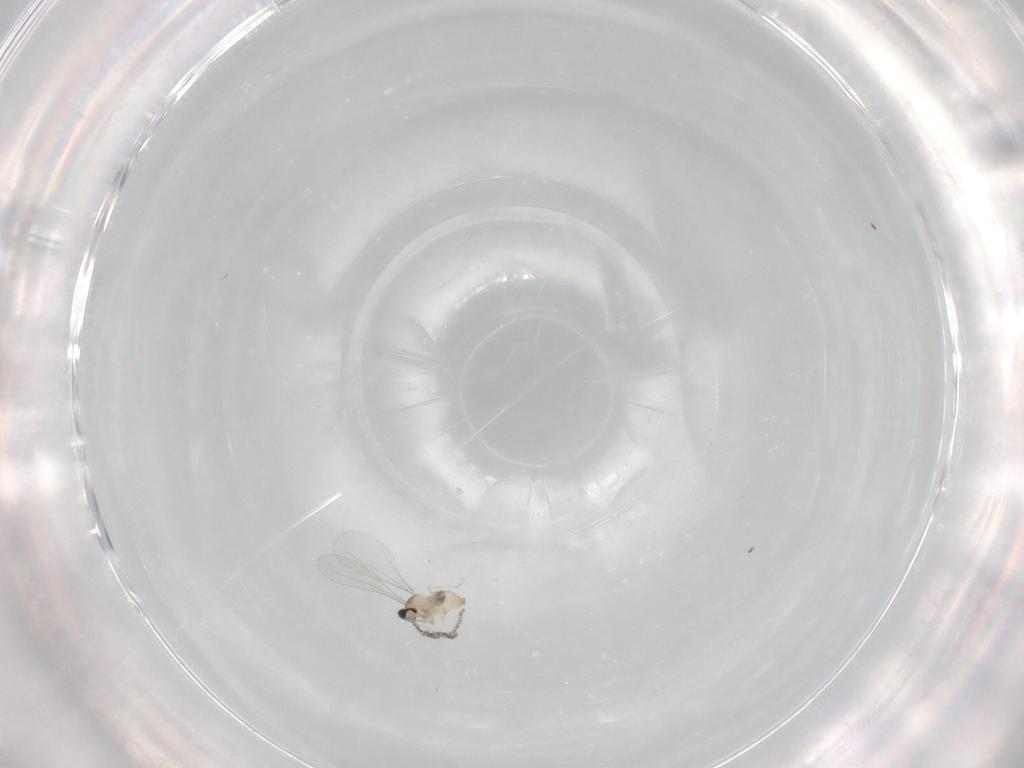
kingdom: Animalia
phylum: Arthropoda
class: Insecta
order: Diptera
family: Cecidomyiidae
